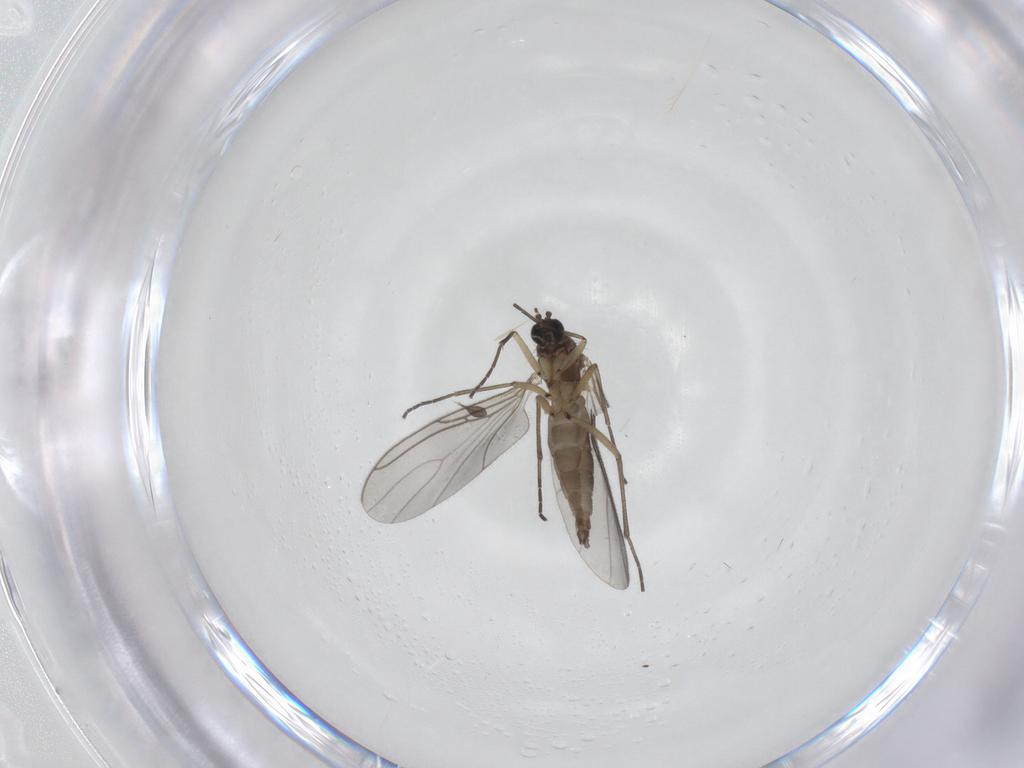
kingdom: Animalia
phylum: Arthropoda
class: Insecta
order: Diptera
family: Sciaridae
